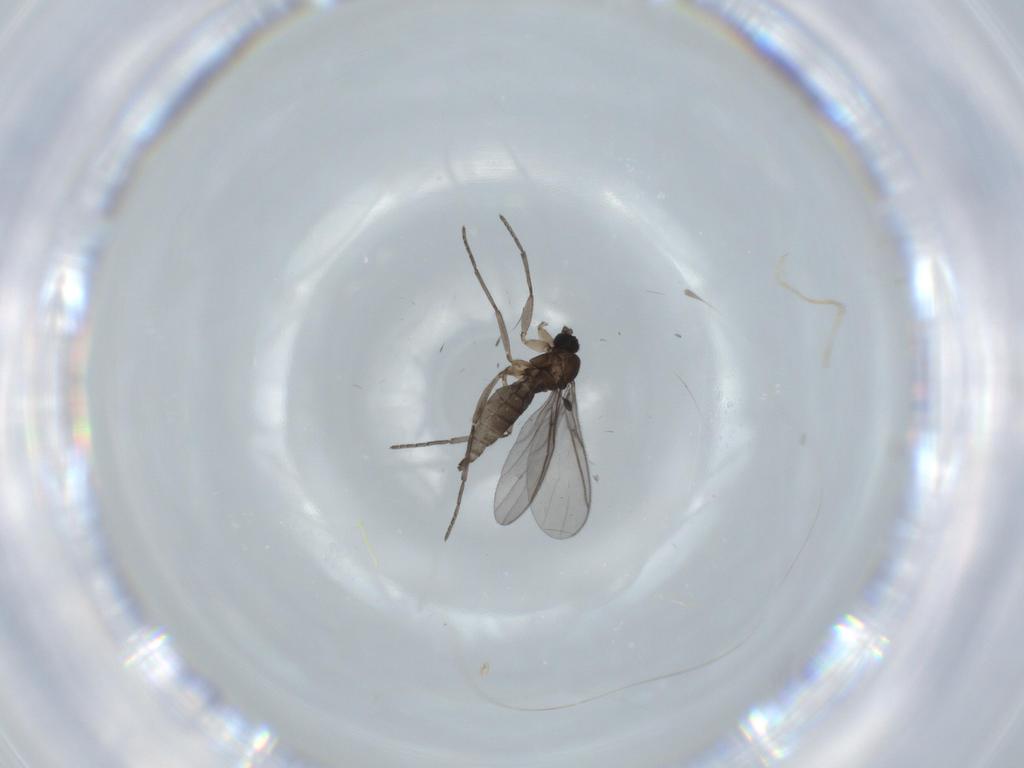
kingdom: Animalia
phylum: Arthropoda
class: Insecta
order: Diptera
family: Sciaridae
